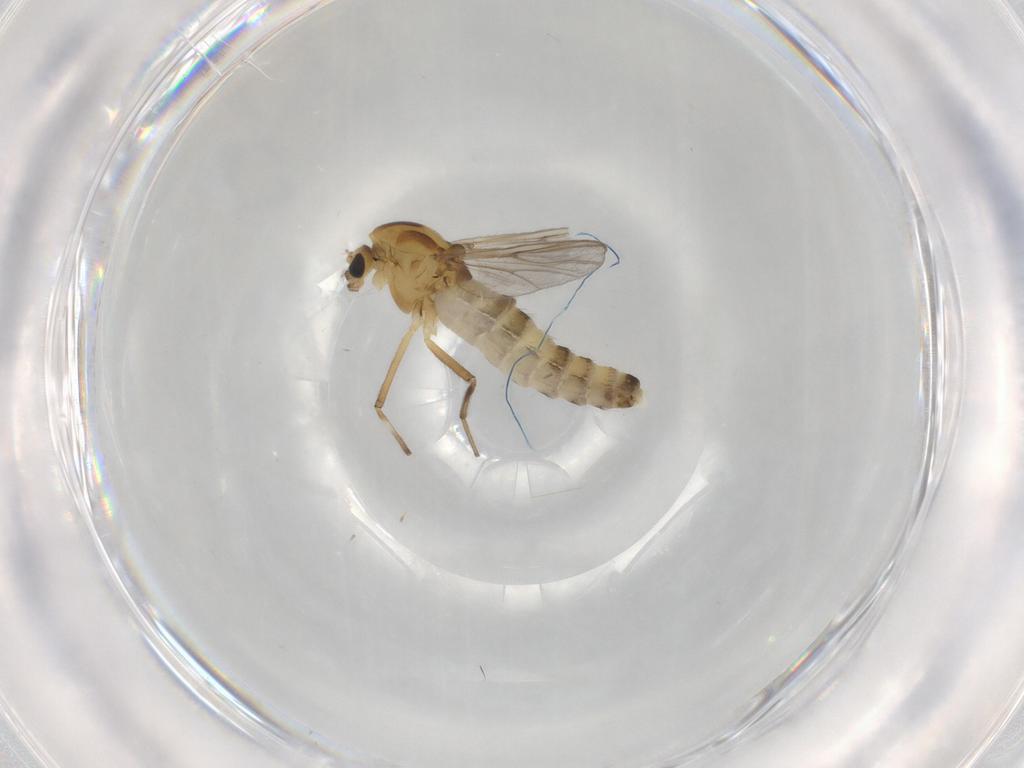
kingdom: Animalia
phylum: Arthropoda
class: Insecta
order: Diptera
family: Chironomidae
